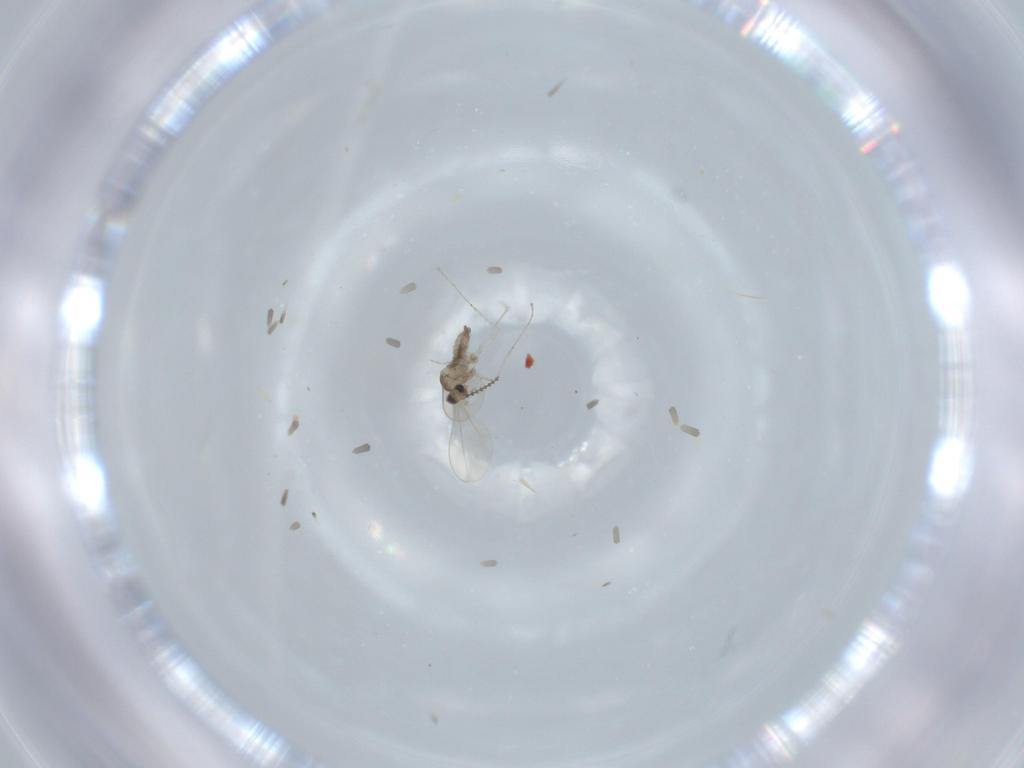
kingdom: Animalia
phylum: Arthropoda
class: Insecta
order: Diptera
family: Cecidomyiidae
